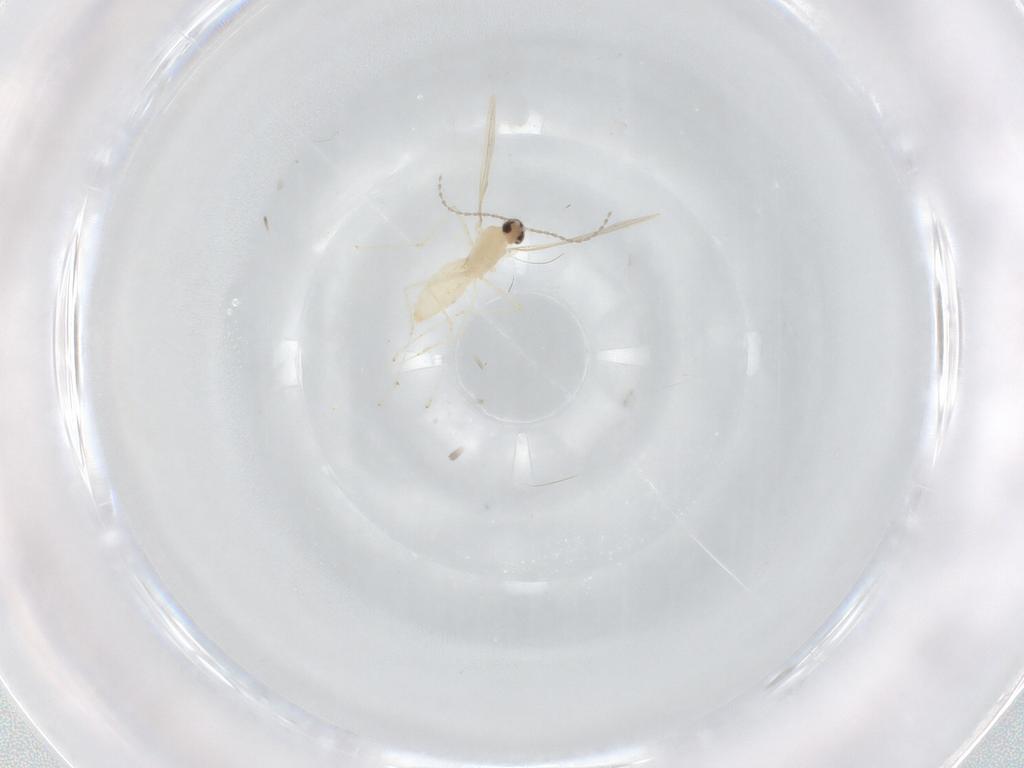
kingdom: Animalia
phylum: Arthropoda
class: Insecta
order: Diptera
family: Cecidomyiidae
